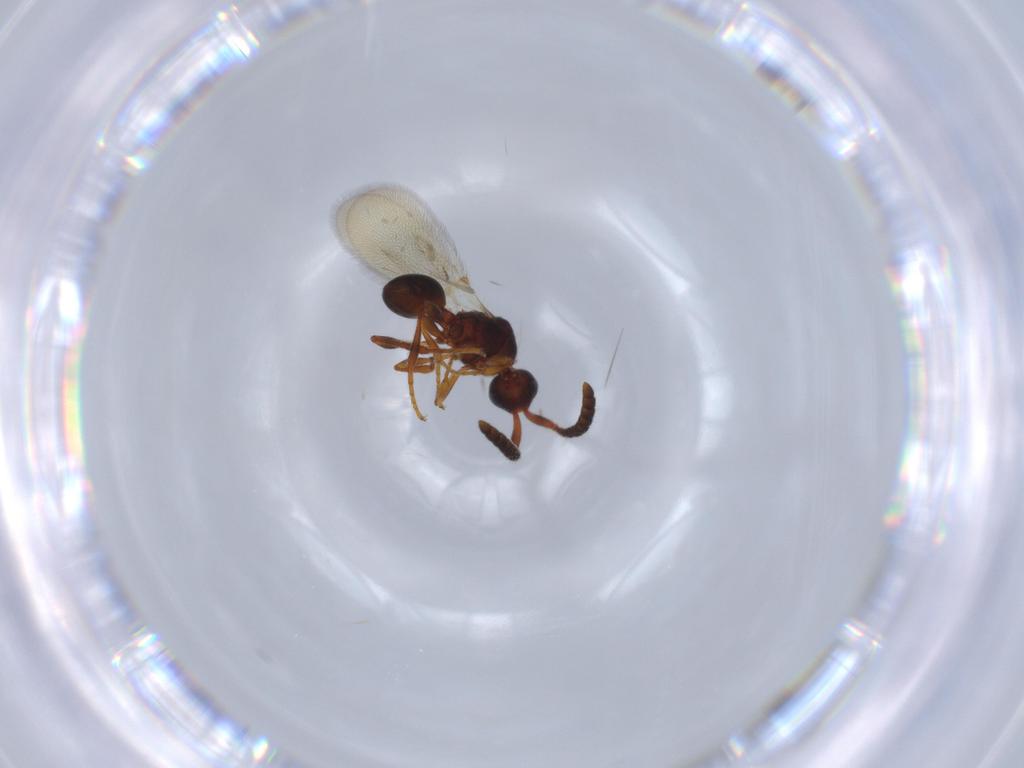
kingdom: Animalia
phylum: Arthropoda
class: Insecta
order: Hymenoptera
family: Diapriidae
